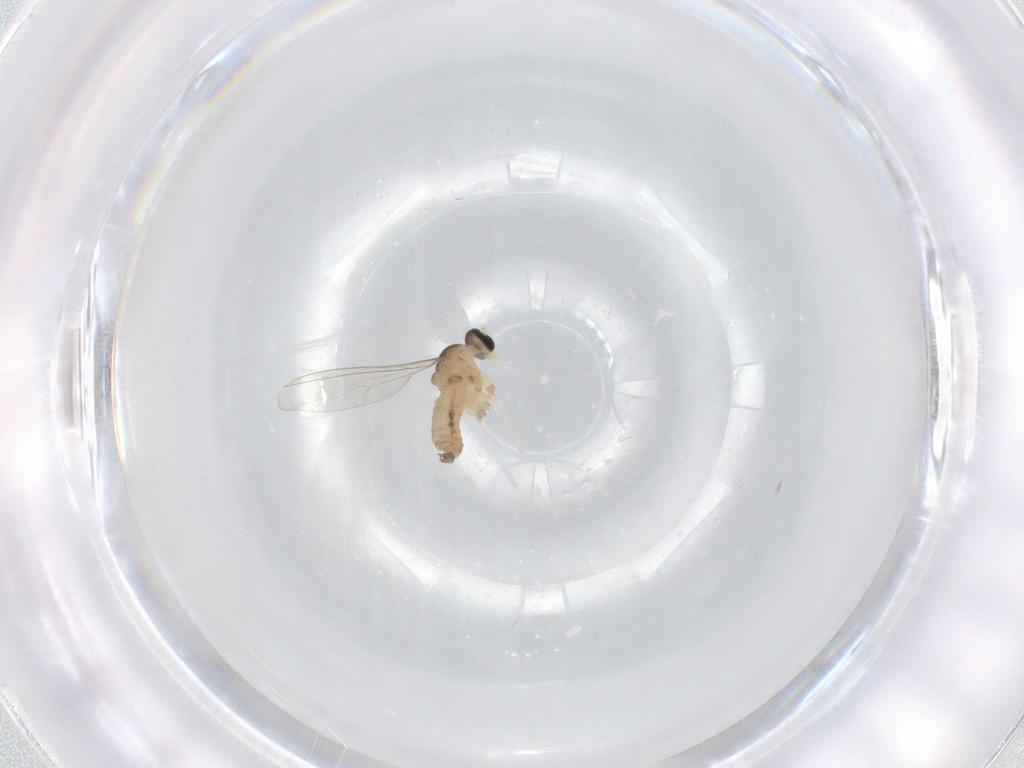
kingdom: Animalia
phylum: Arthropoda
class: Insecta
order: Diptera
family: Cecidomyiidae
